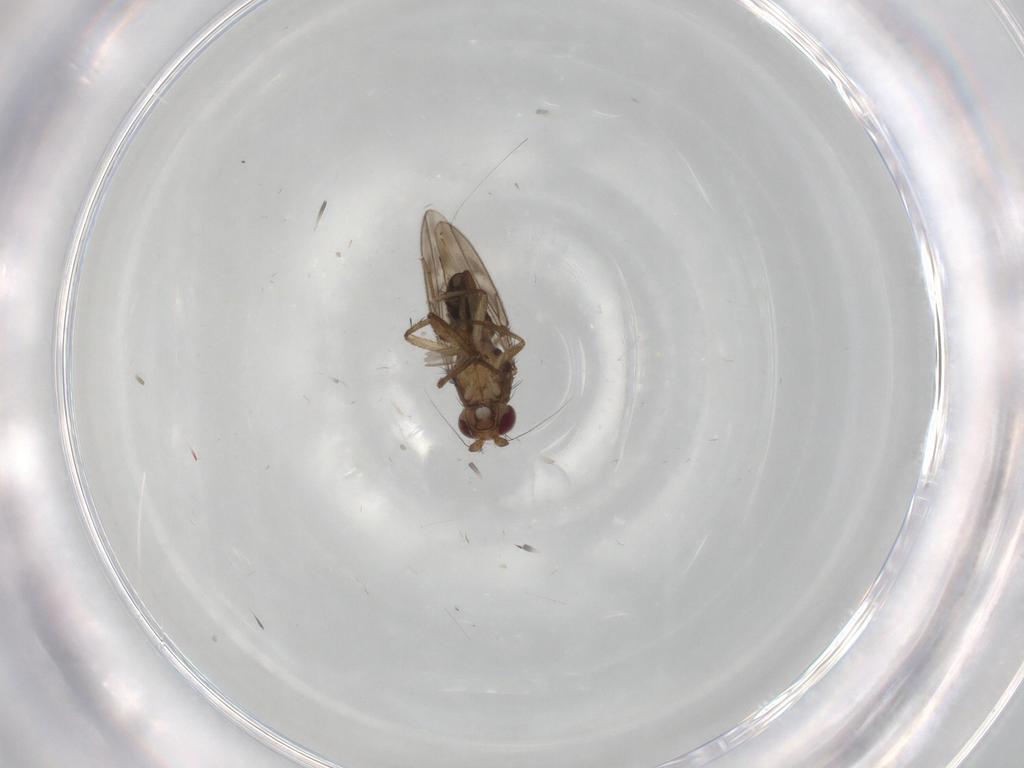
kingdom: Animalia
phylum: Arthropoda
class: Insecta
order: Diptera
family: Sphaeroceridae
